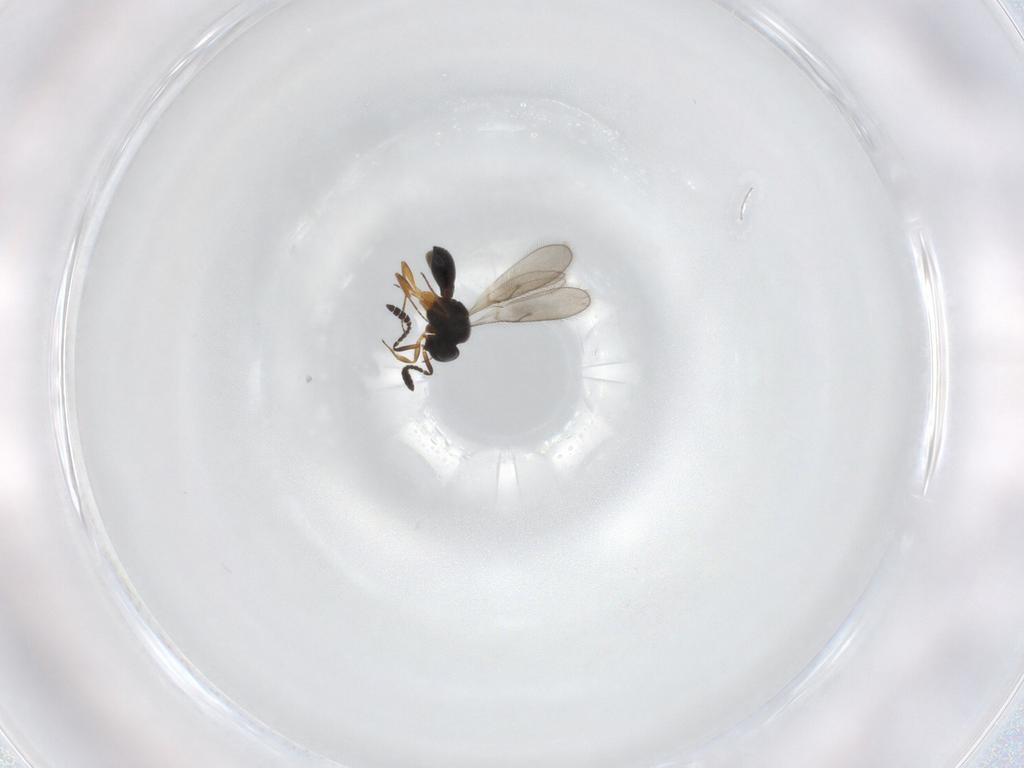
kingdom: Animalia
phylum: Arthropoda
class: Insecta
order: Hymenoptera
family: Scelionidae
